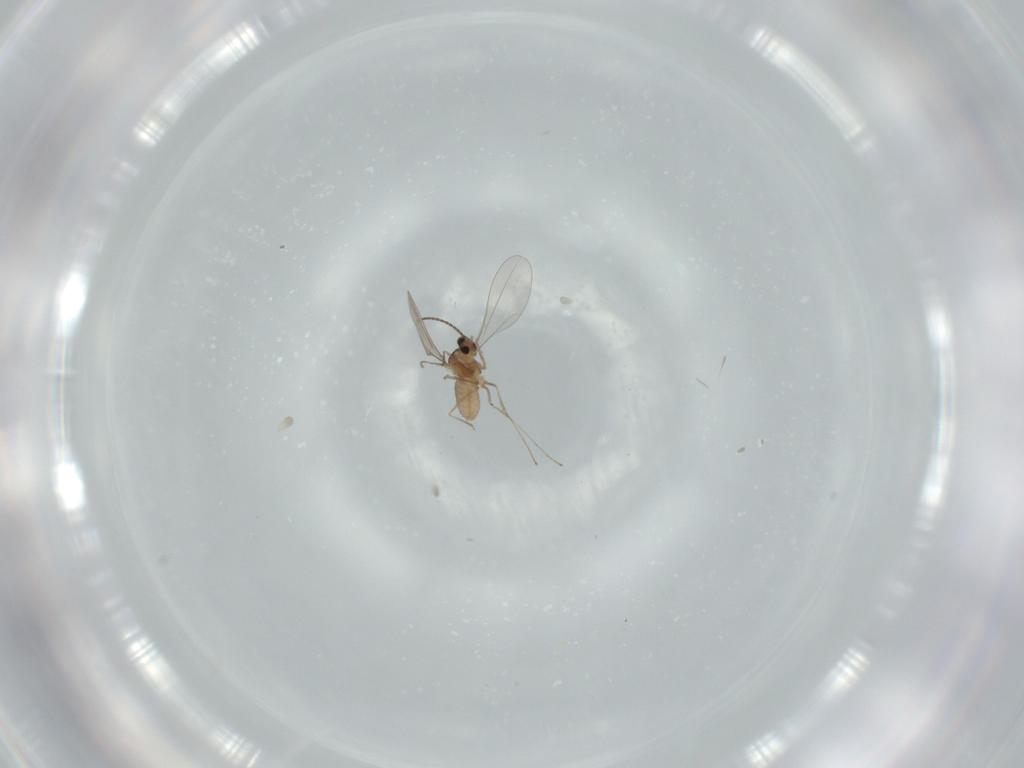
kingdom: Animalia
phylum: Arthropoda
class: Insecta
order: Diptera
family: Cecidomyiidae
